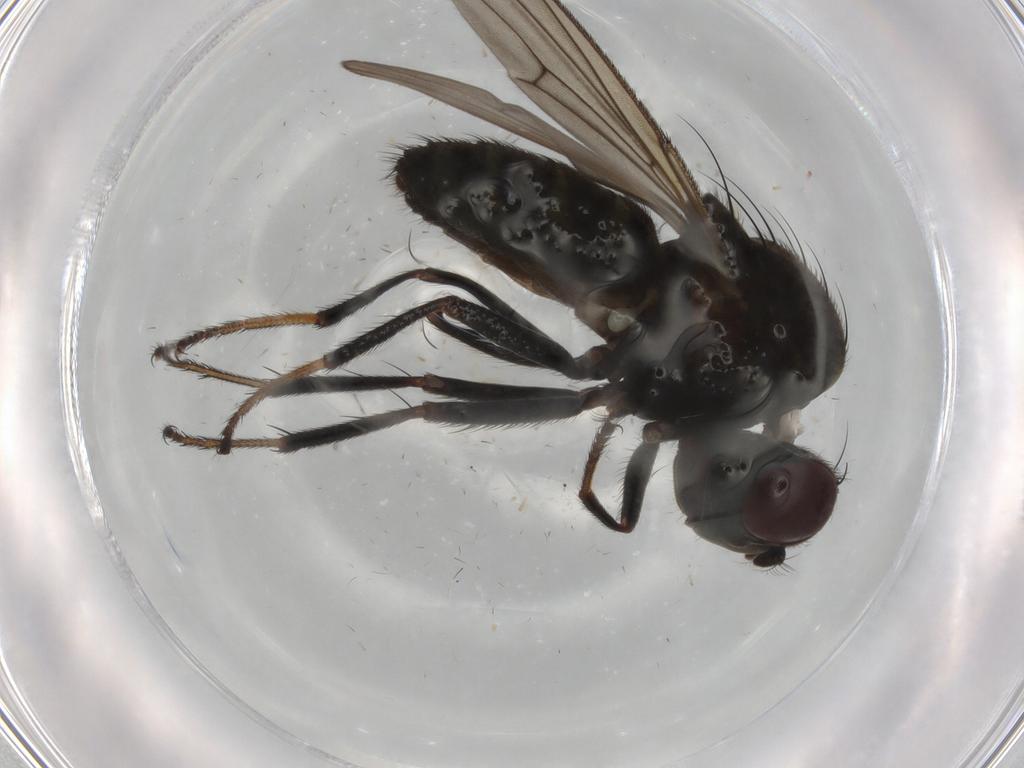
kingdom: Animalia
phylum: Arthropoda
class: Insecta
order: Diptera
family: Ephydridae
